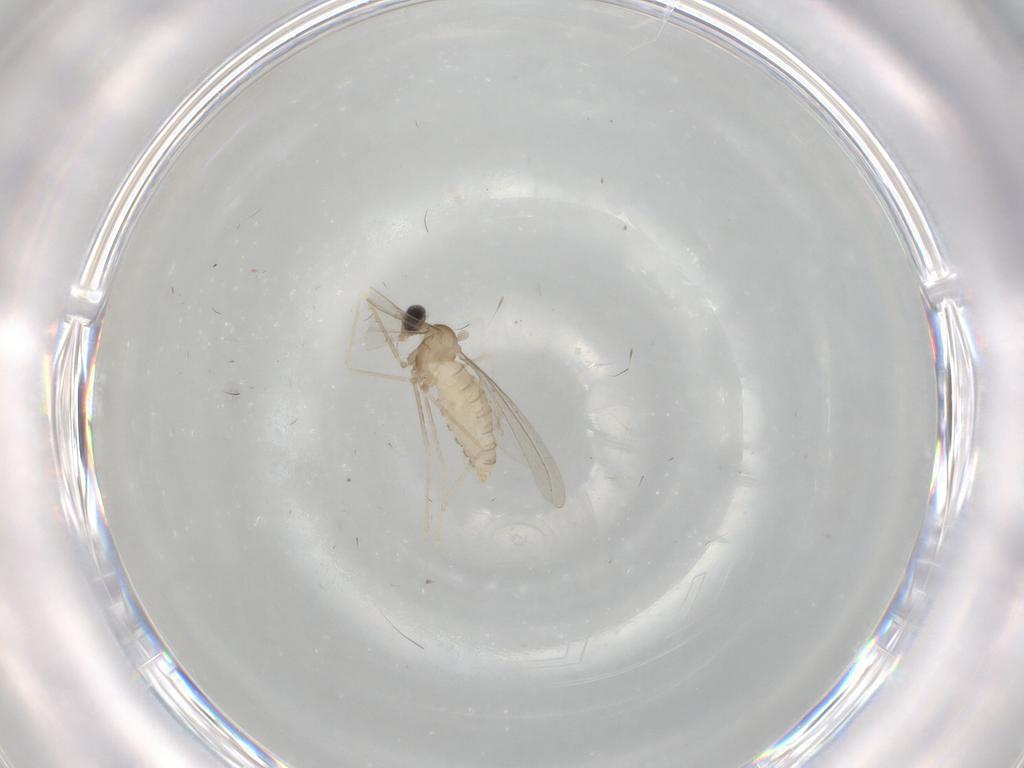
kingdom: Animalia
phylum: Arthropoda
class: Insecta
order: Diptera
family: Cecidomyiidae
